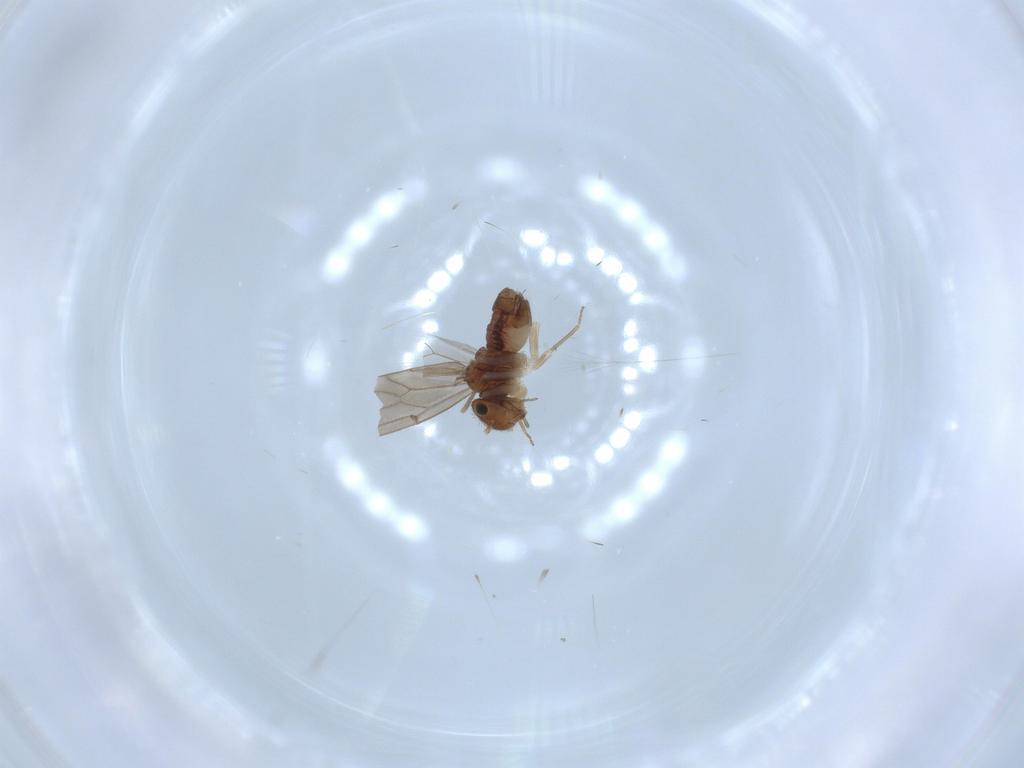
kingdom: Animalia
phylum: Arthropoda
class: Insecta
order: Psocodea
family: Ectopsocidae
